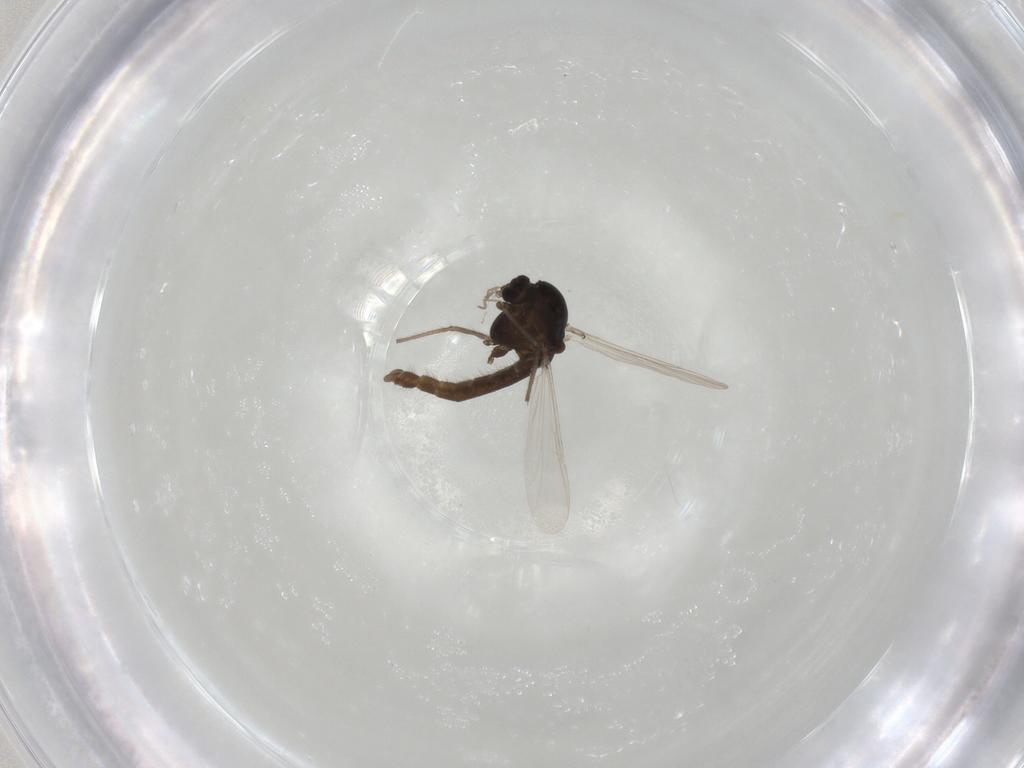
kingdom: Animalia
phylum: Arthropoda
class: Insecta
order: Diptera
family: Chironomidae
